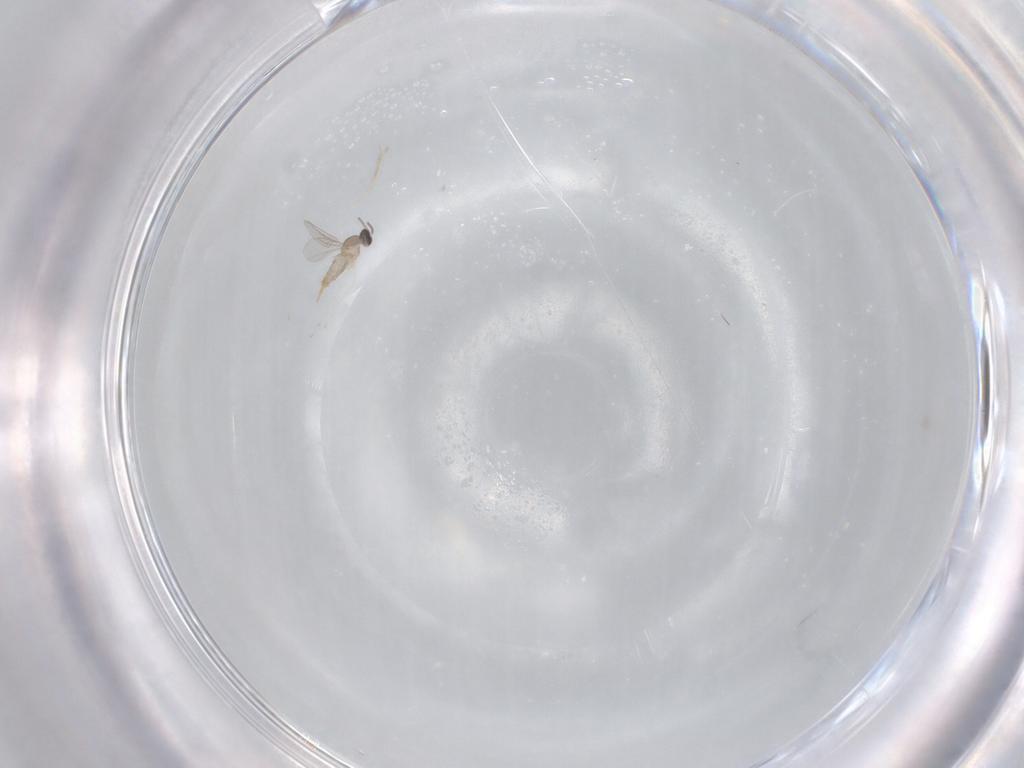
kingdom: Animalia
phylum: Arthropoda
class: Insecta
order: Diptera
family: Cecidomyiidae
